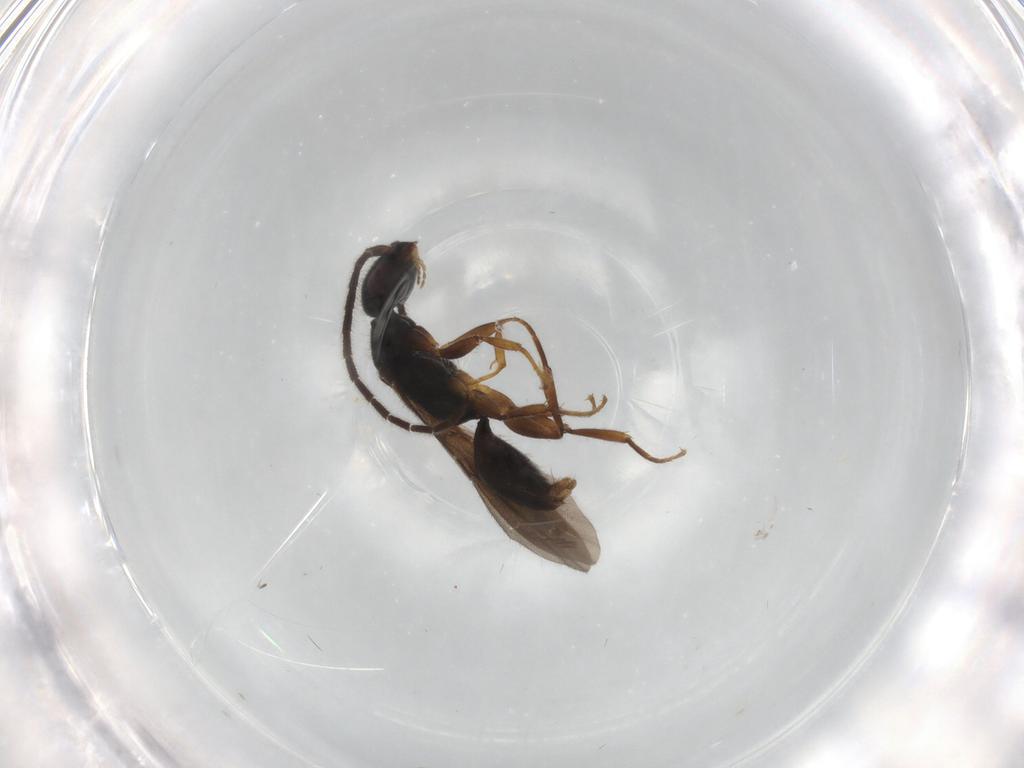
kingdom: Animalia
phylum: Arthropoda
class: Insecta
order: Hymenoptera
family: Bethylidae
